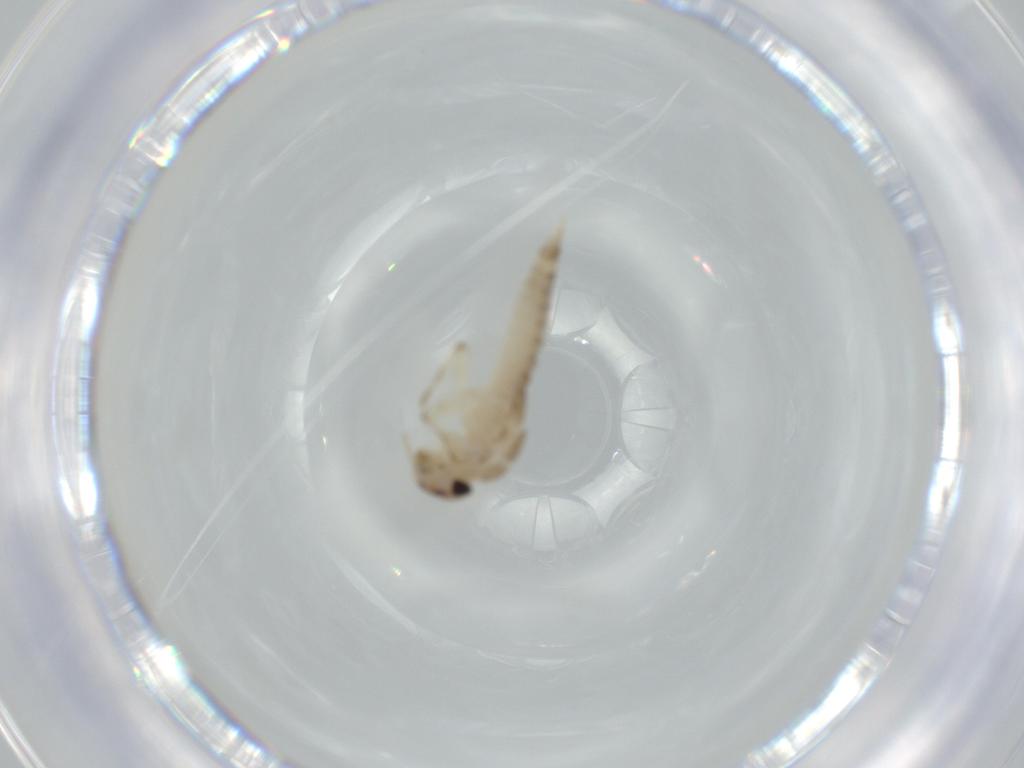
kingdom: Animalia
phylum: Arthropoda
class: Insecta
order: Ephemeroptera
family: Baetidae
